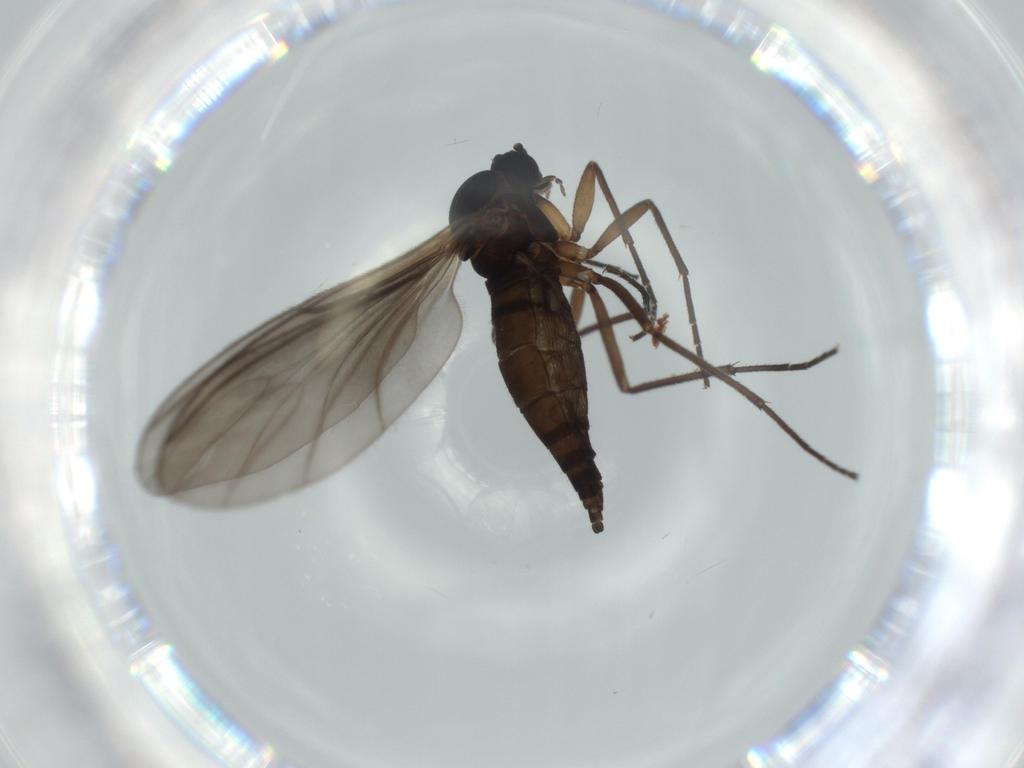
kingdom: Animalia
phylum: Arthropoda
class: Insecta
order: Diptera
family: Sciaridae
